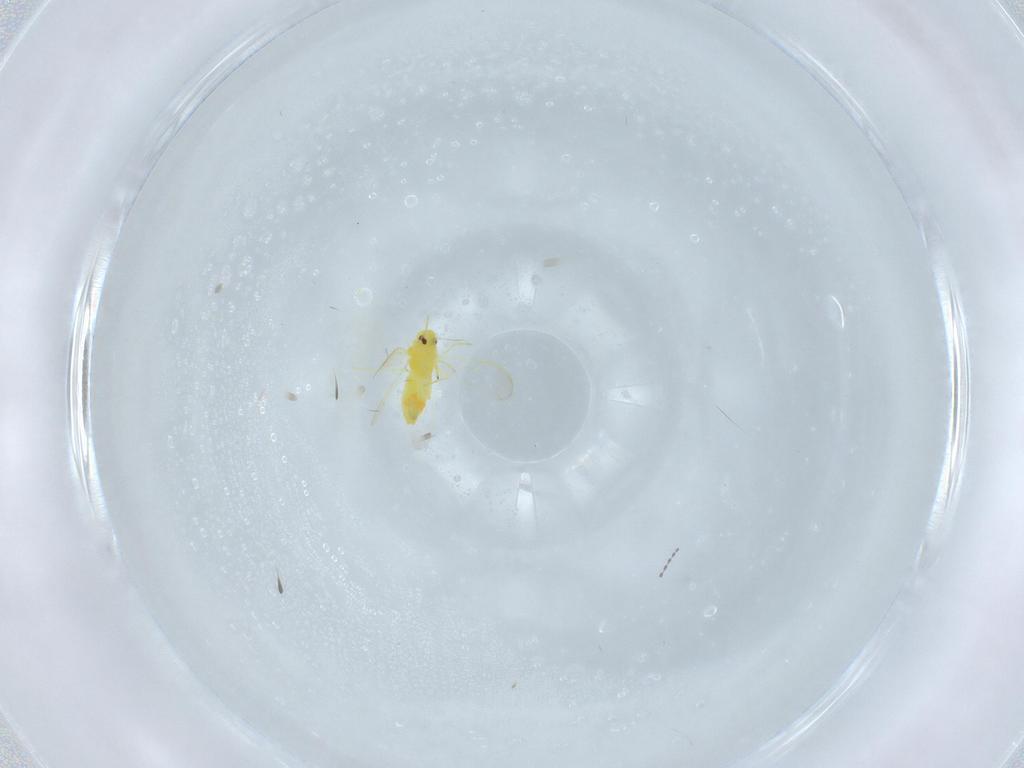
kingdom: Animalia
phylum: Arthropoda
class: Insecta
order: Hemiptera
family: Aleyrodidae
